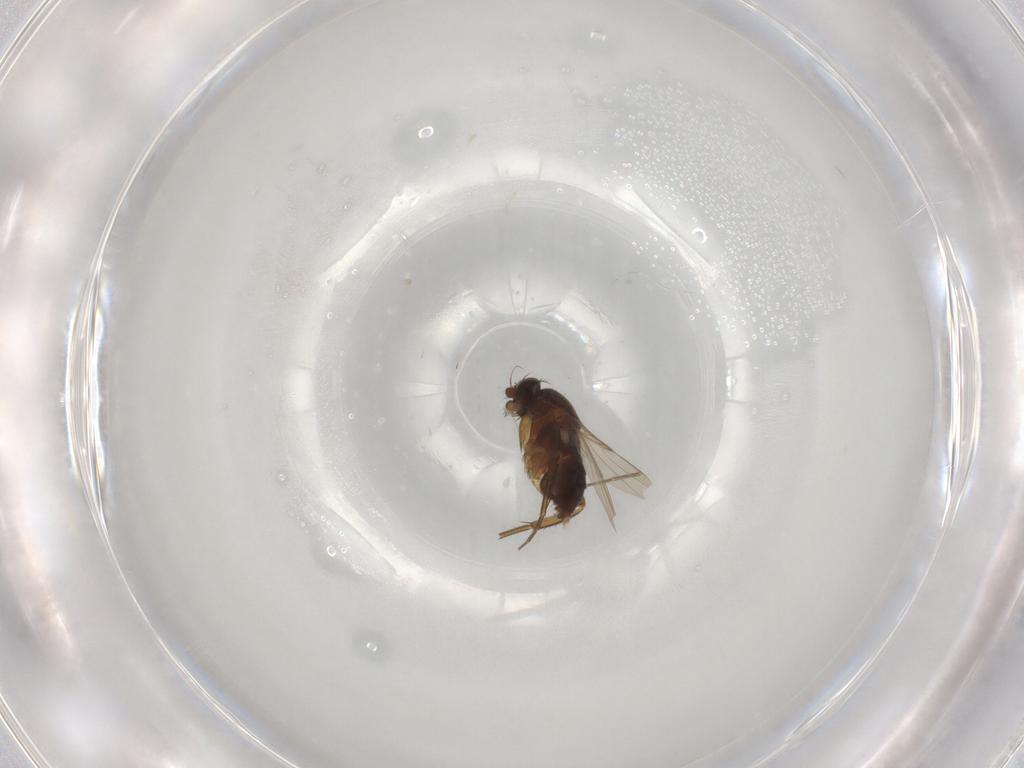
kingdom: Animalia
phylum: Arthropoda
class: Insecta
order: Diptera
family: Phoridae
